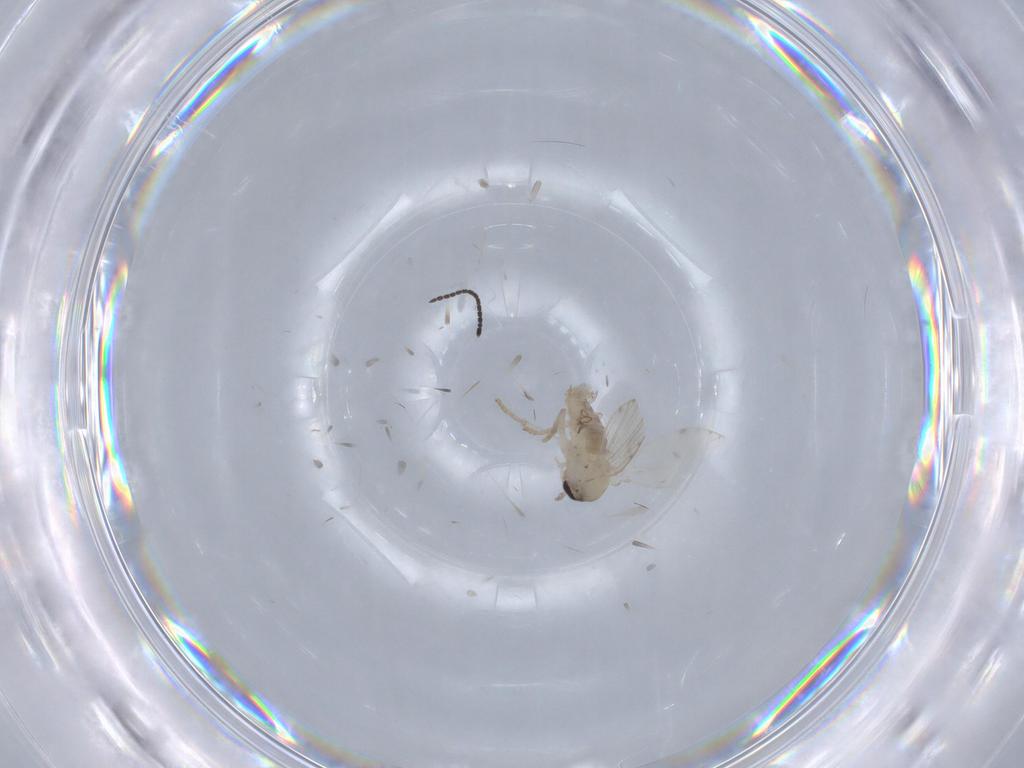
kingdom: Animalia
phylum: Arthropoda
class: Insecta
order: Diptera
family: Psychodidae
